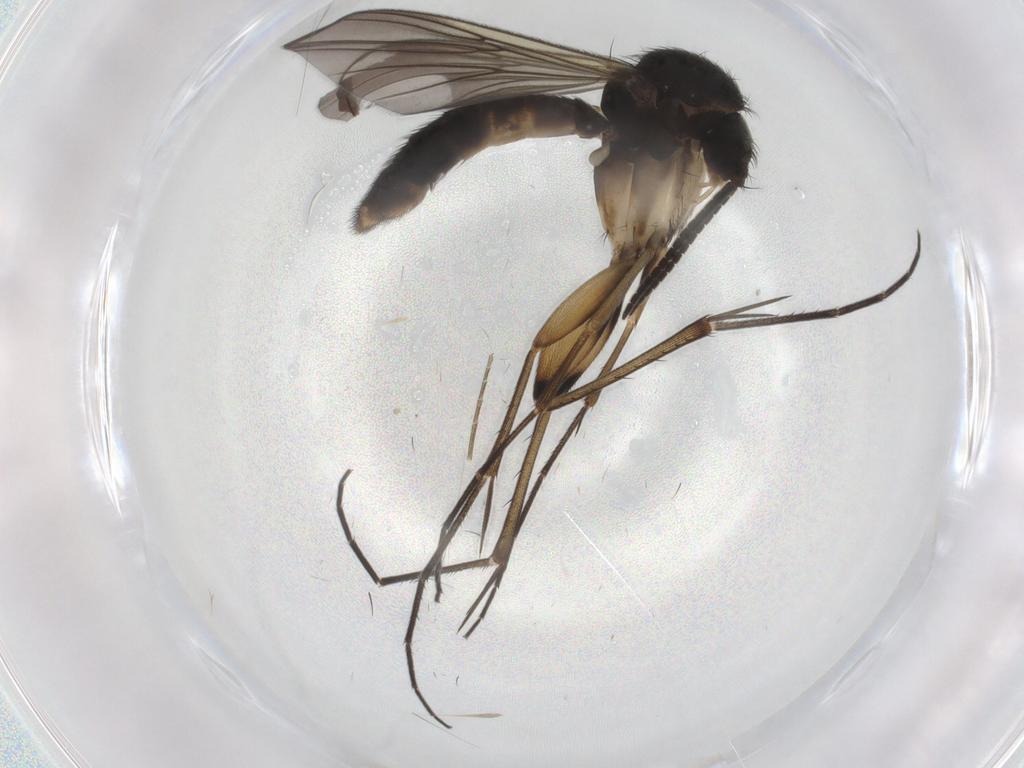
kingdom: Animalia
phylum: Arthropoda
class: Insecta
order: Diptera
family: Mycetophilidae
